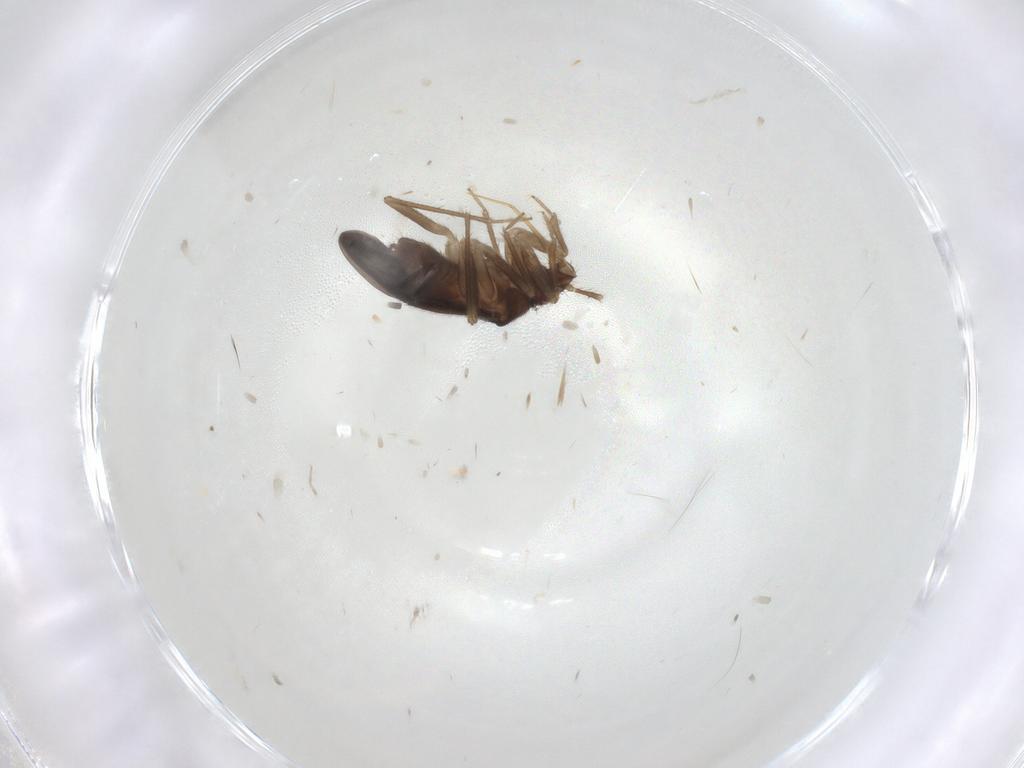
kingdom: Animalia
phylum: Arthropoda
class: Insecta
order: Hemiptera
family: Ceratocombidae
